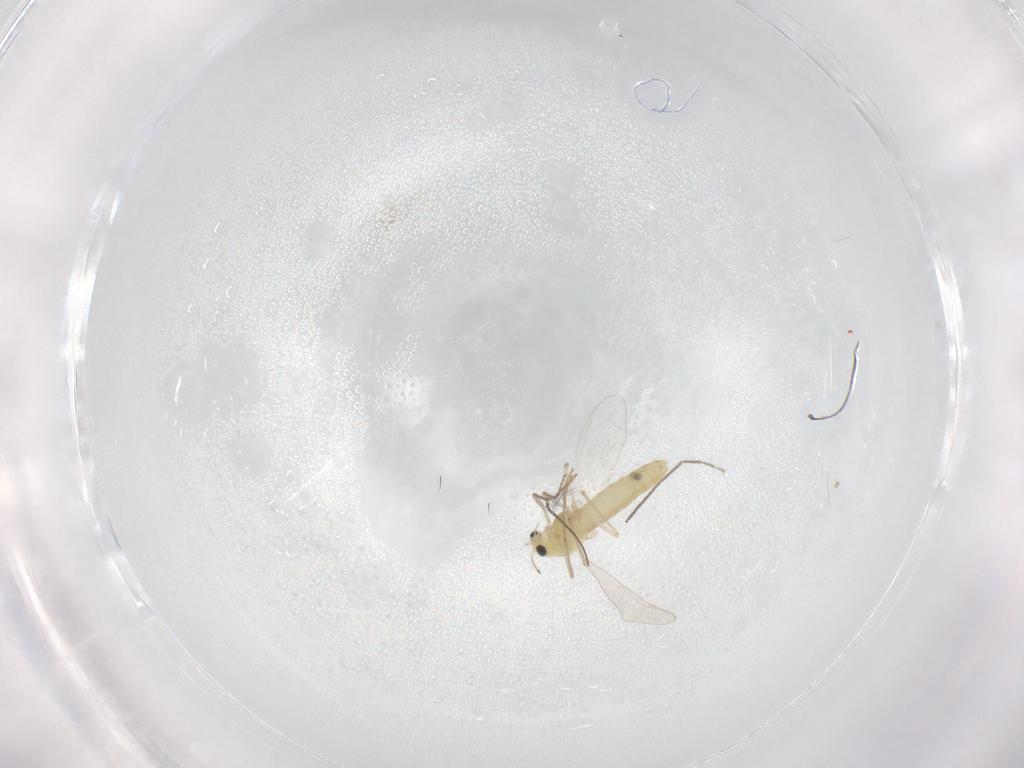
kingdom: Animalia
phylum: Arthropoda
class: Insecta
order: Diptera
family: Chironomidae
